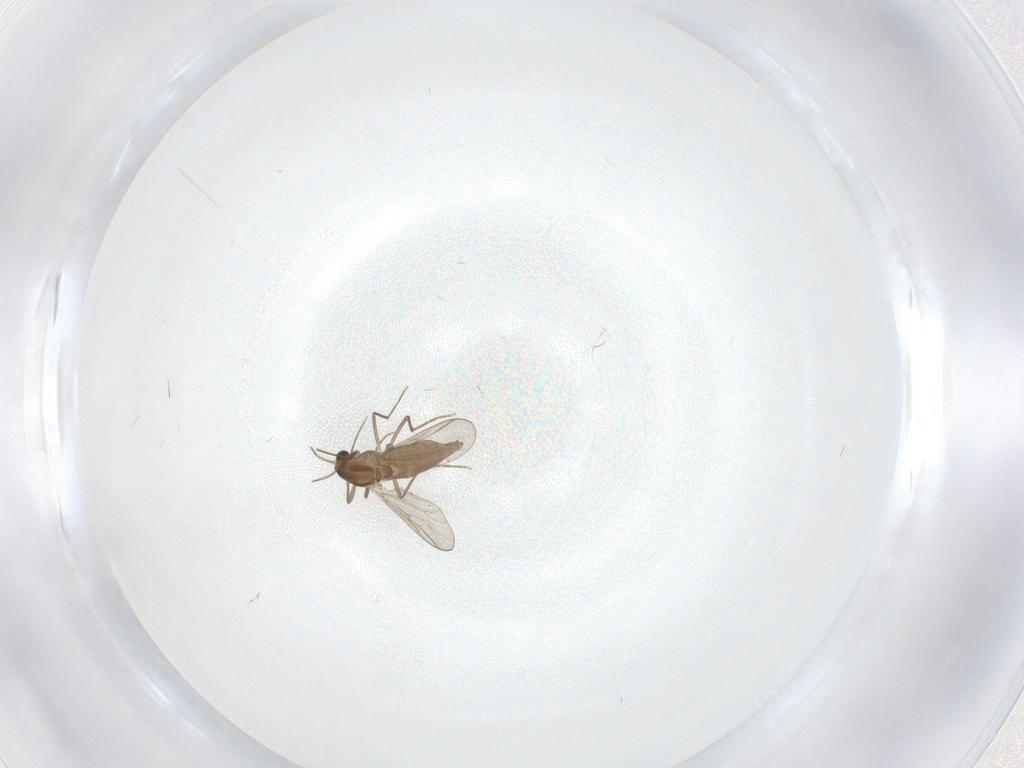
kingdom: Animalia
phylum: Arthropoda
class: Insecta
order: Diptera
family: Chironomidae
